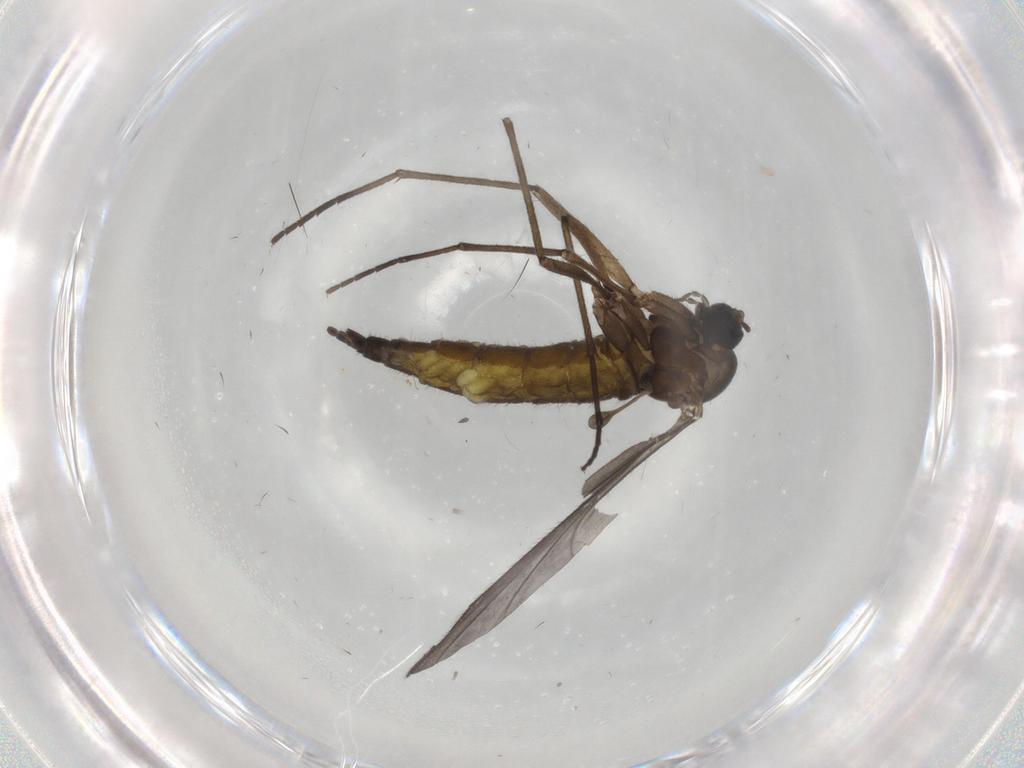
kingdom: Animalia
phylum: Arthropoda
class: Insecta
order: Diptera
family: Sciaridae
